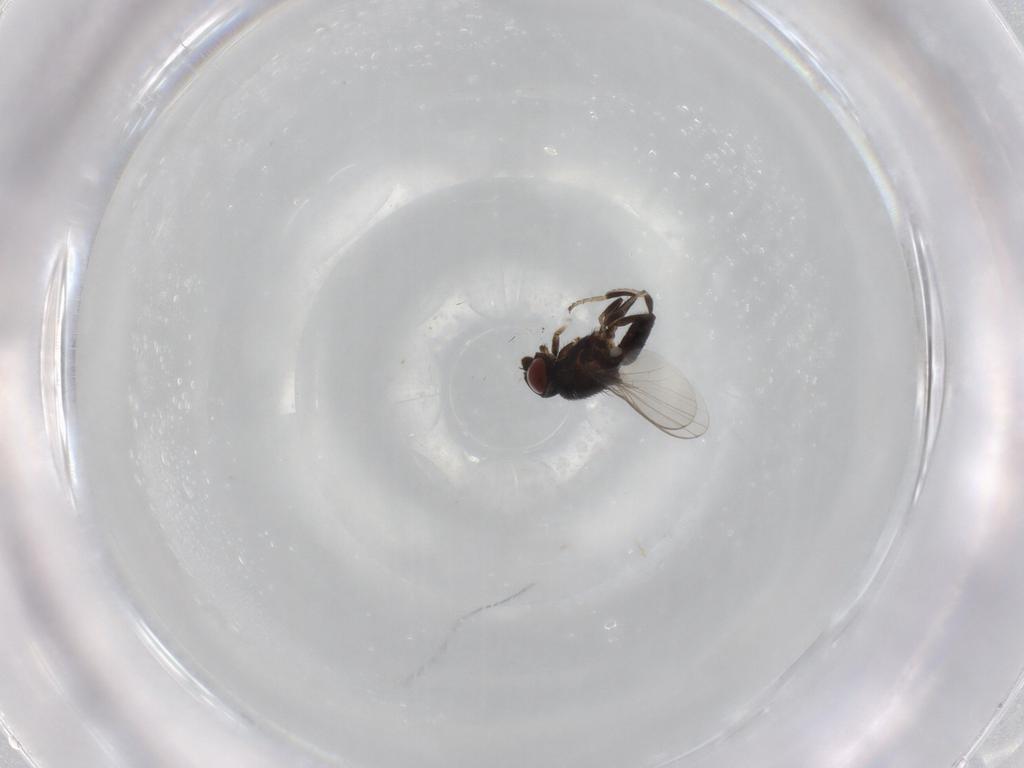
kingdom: Animalia
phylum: Arthropoda
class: Insecta
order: Diptera
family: Milichiidae
